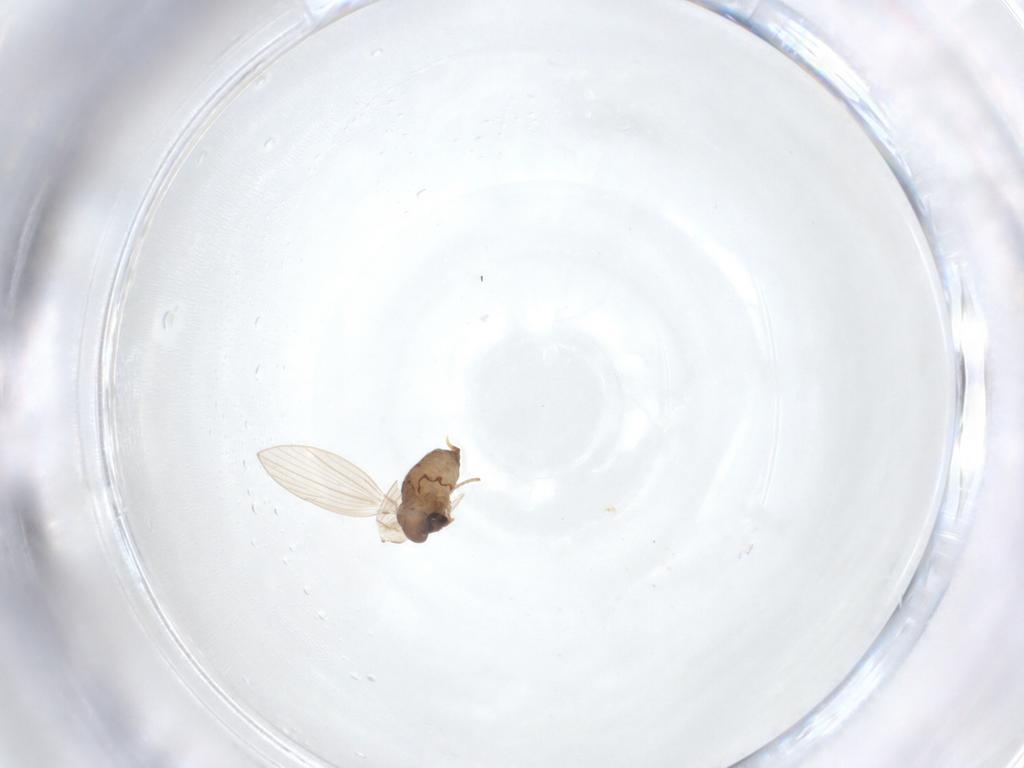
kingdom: Animalia
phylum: Arthropoda
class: Insecta
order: Diptera
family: Psychodidae
